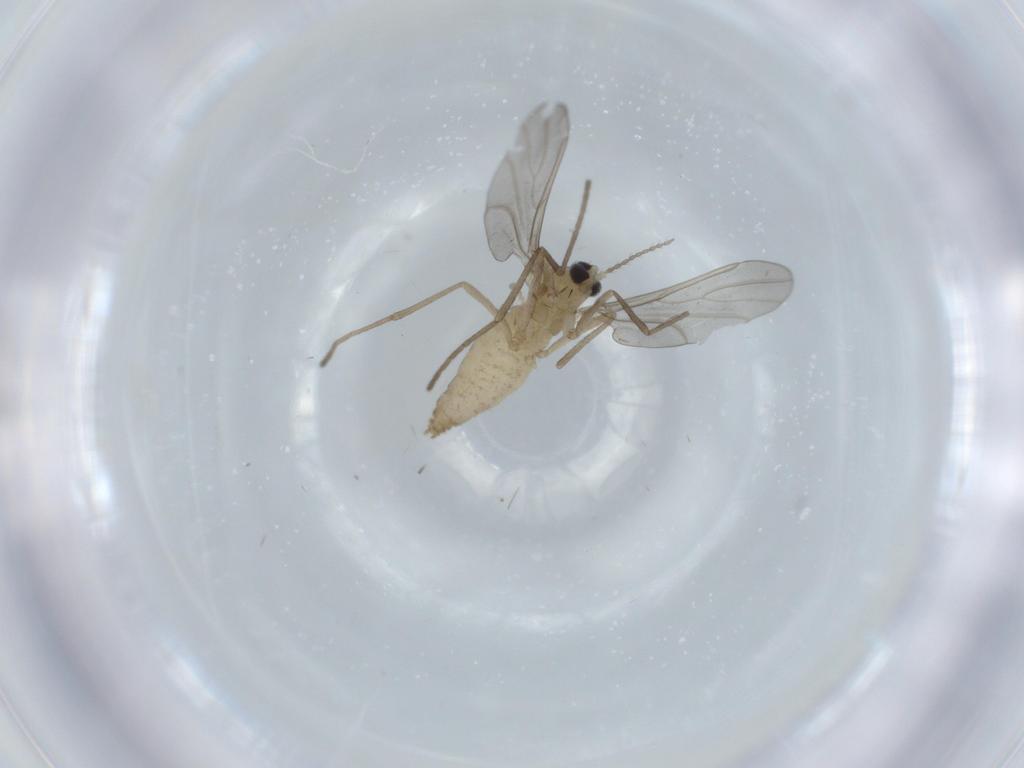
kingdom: Animalia
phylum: Arthropoda
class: Insecta
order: Diptera
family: Cecidomyiidae
